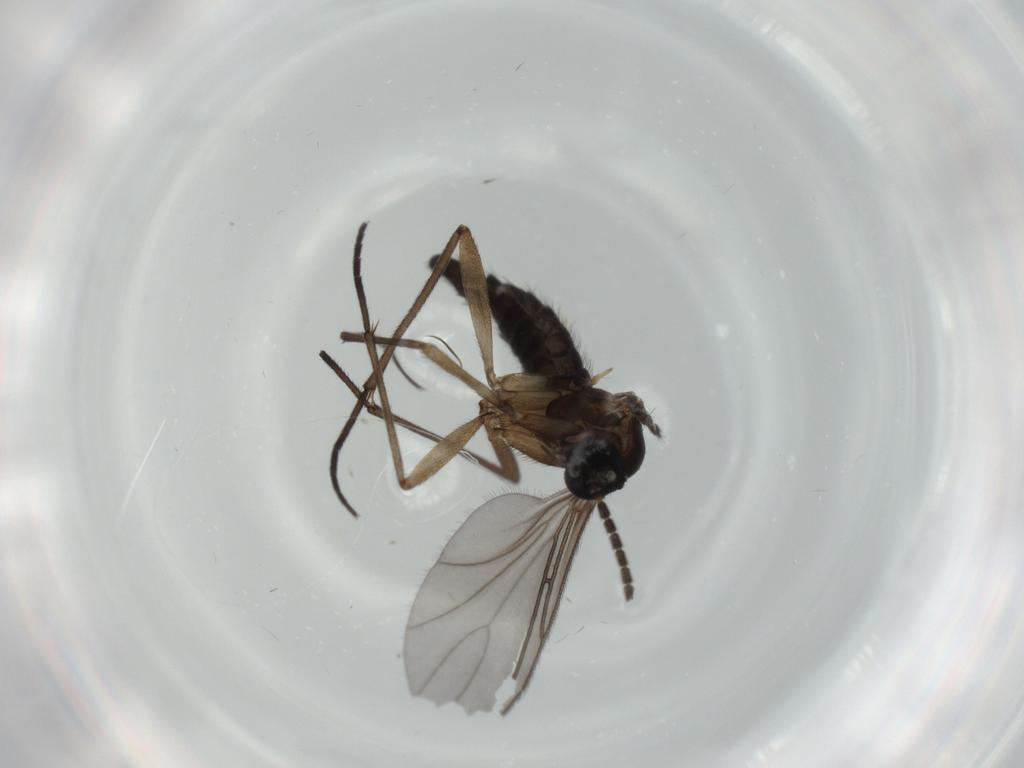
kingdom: Animalia
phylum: Arthropoda
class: Insecta
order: Diptera
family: Sciaridae
